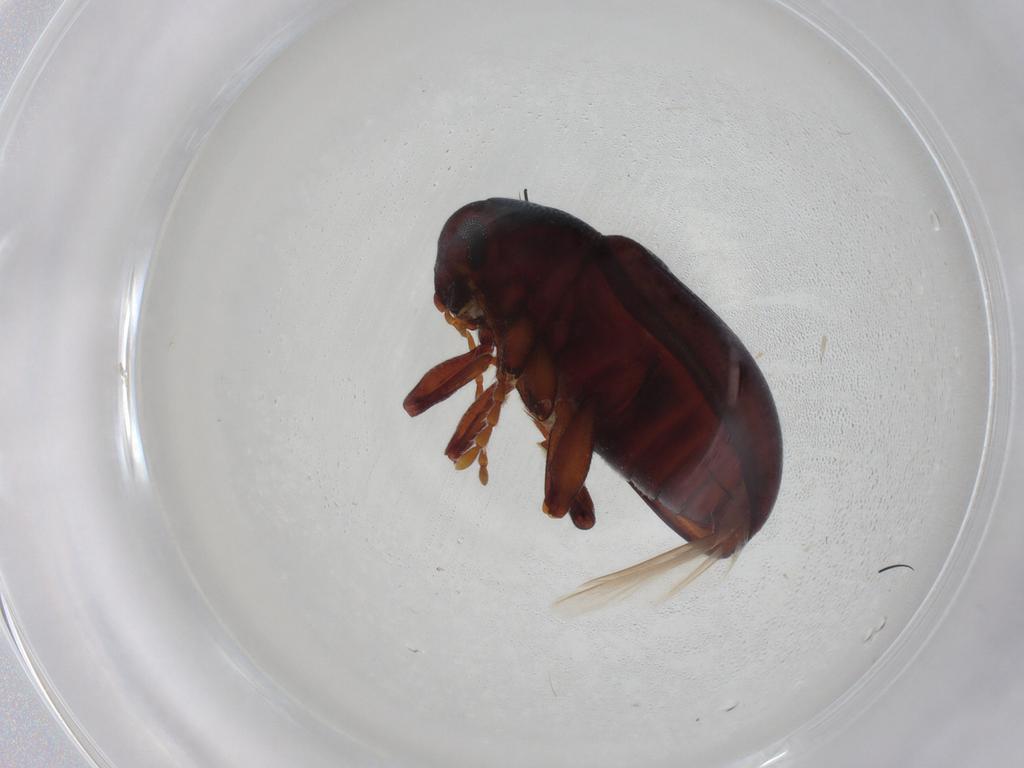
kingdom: Animalia
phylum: Arthropoda
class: Insecta
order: Coleoptera
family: Chrysomelidae
